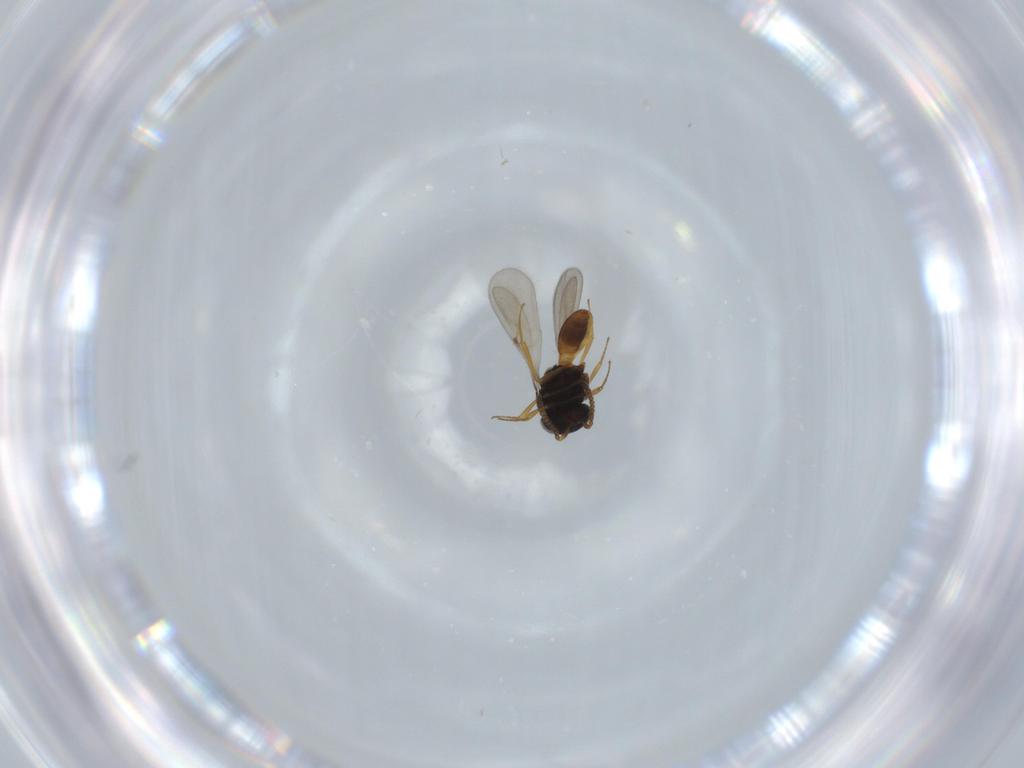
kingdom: Animalia
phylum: Arthropoda
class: Insecta
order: Hymenoptera
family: Scelionidae
